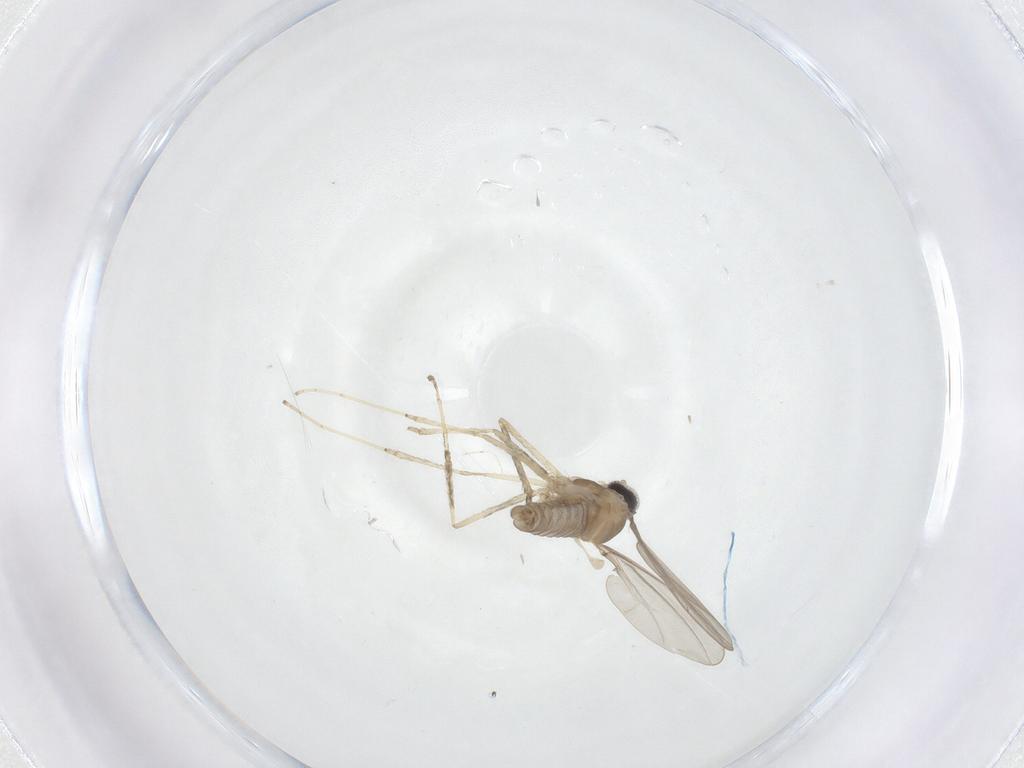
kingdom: Animalia
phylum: Arthropoda
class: Insecta
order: Diptera
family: Cecidomyiidae
